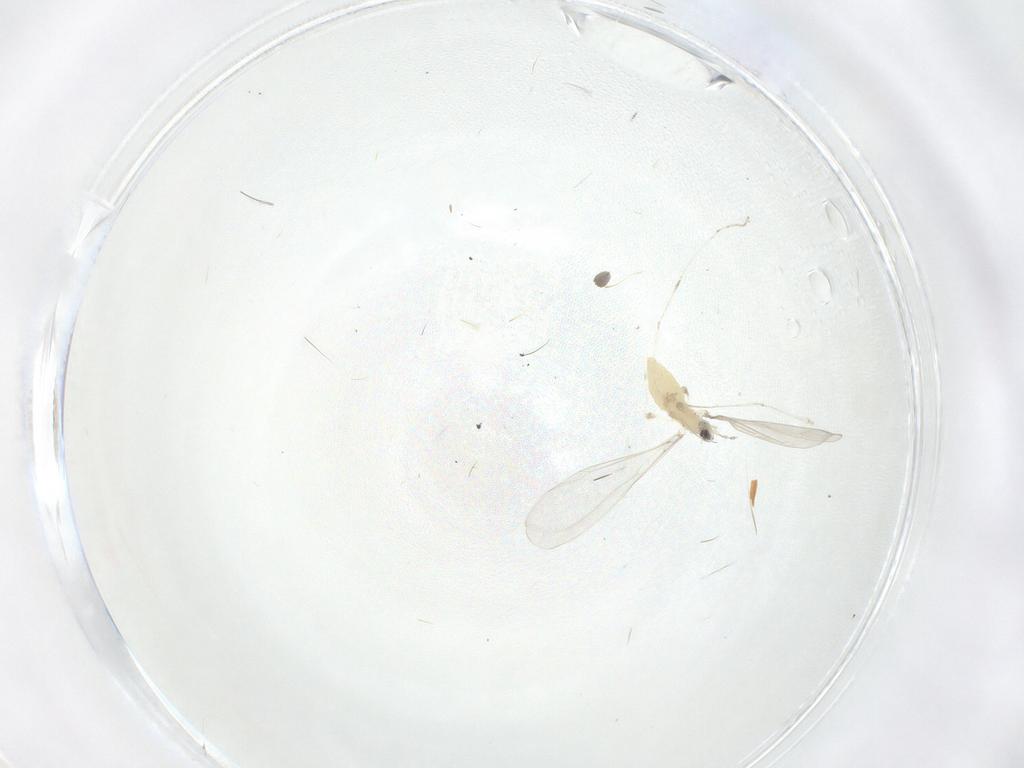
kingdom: Animalia
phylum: Arthropoda
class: Insecta
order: Diptera
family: Cecidomyiidae
